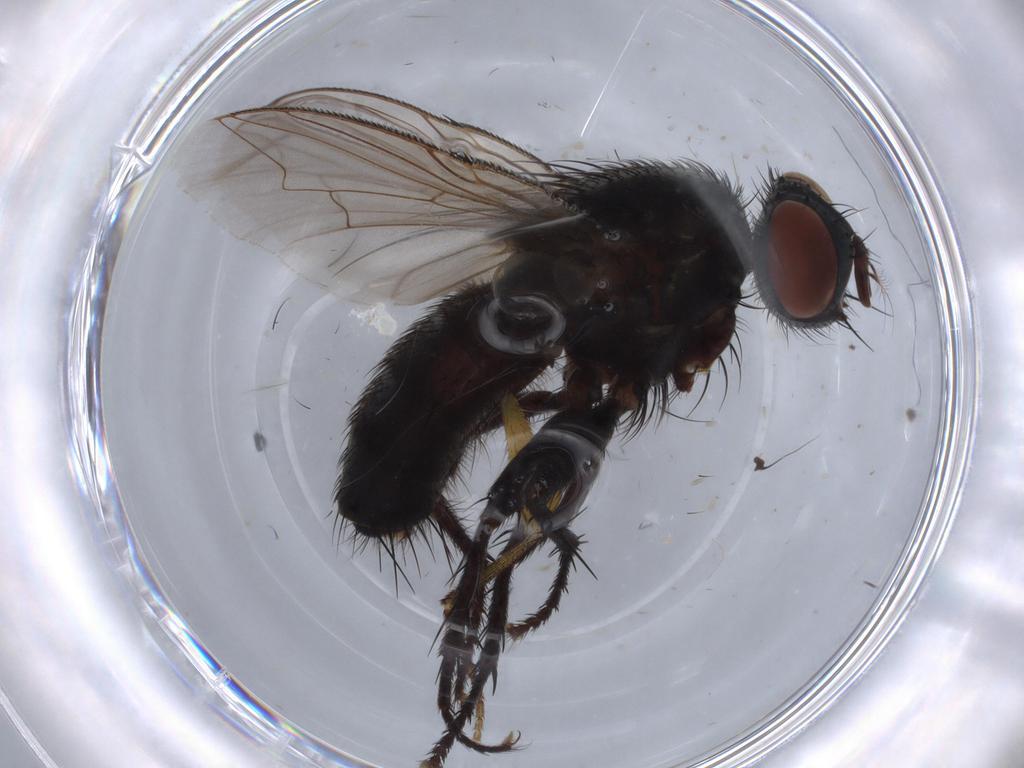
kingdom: Animalia
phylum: Arthropoda
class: Insecta
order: Diptera
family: Sarcophagidae
